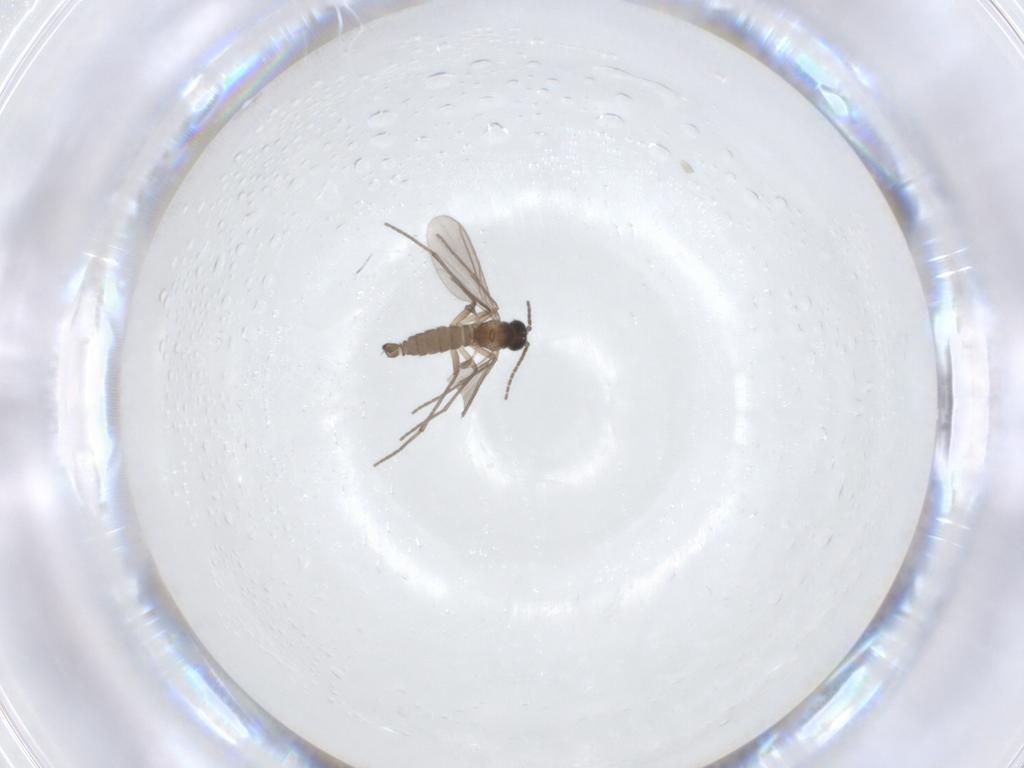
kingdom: Animalia
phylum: Arthropoda
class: Insecta
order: Diptera
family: Sciaridae
